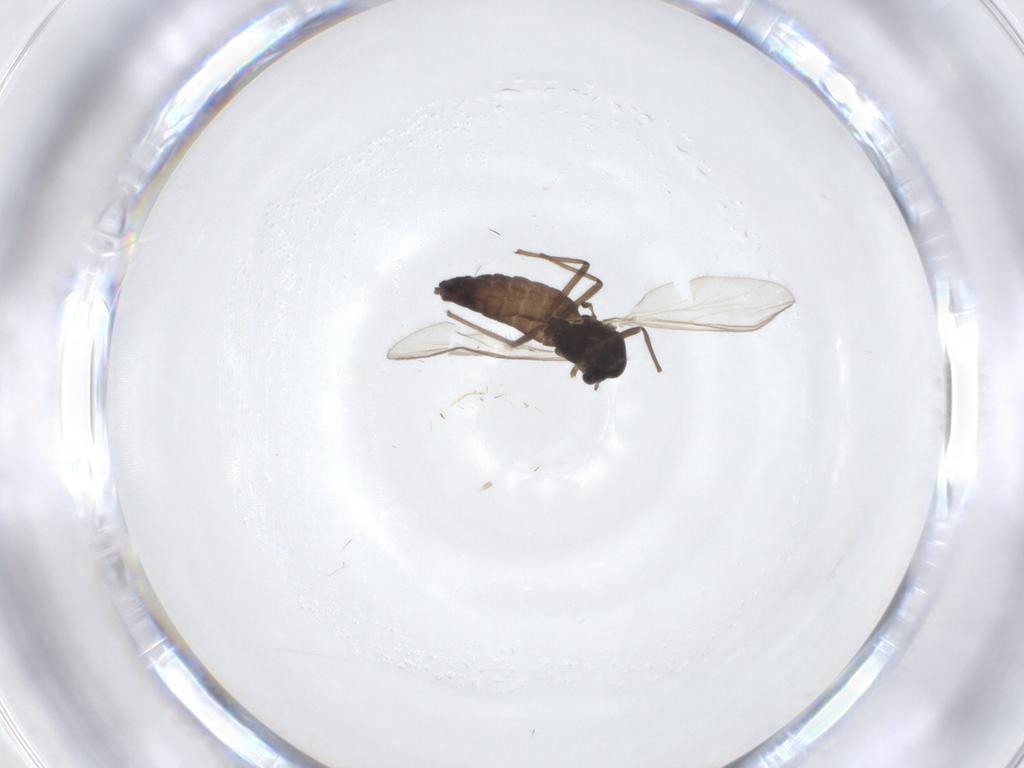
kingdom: Animalia
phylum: Arthropoda
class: Insecta
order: Diptera
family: Chironomidae
